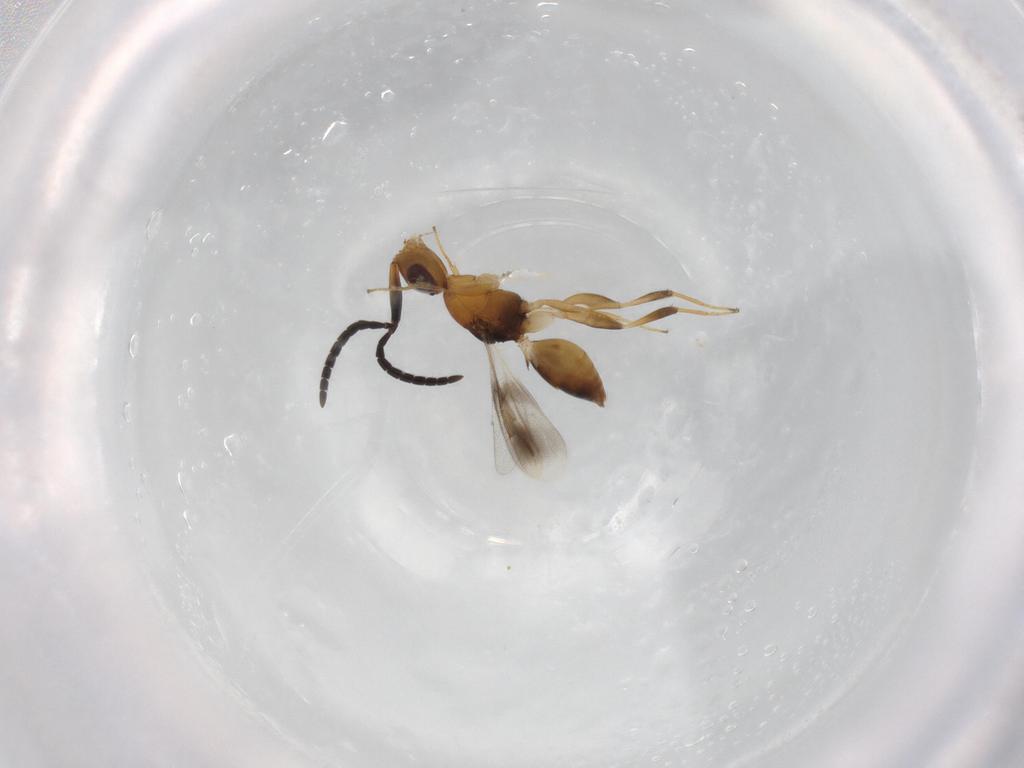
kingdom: Animalia
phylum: Arthropoda
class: Insecta
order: Hymenoptera
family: Megaspilidae
